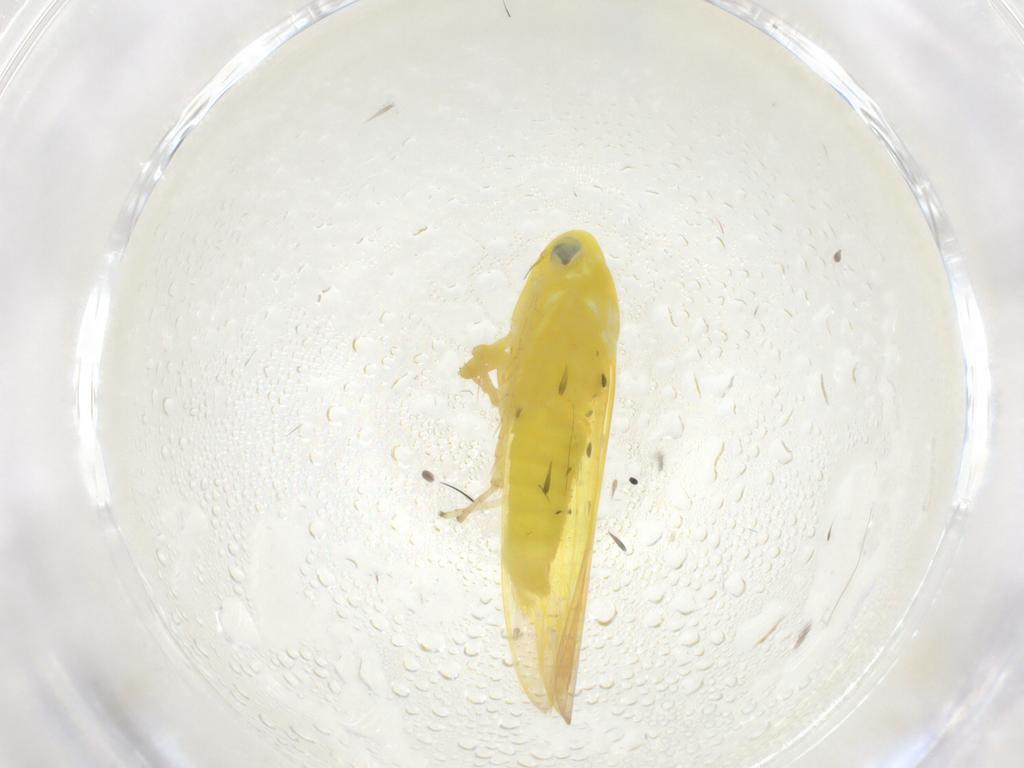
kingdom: Animalia
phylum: Arthropoda
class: Insecta
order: Hemiptera
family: Cicadellidae
